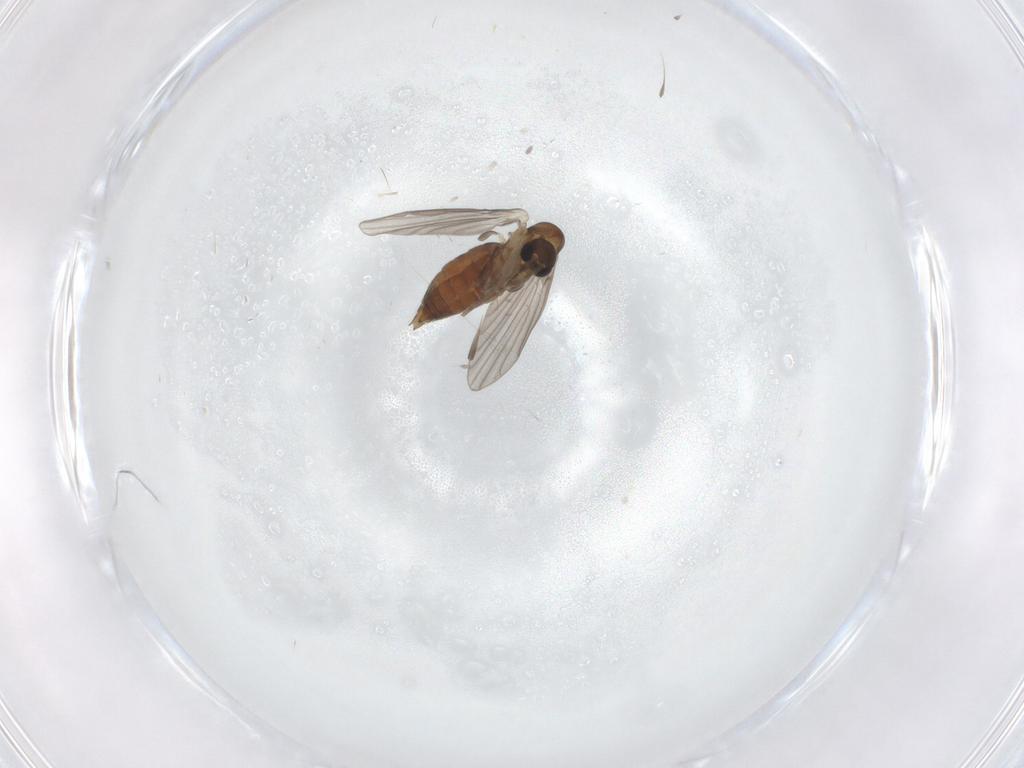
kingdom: Animalia
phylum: Arthropoda
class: Insecta
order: Diptera
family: Ceratopogonidae
